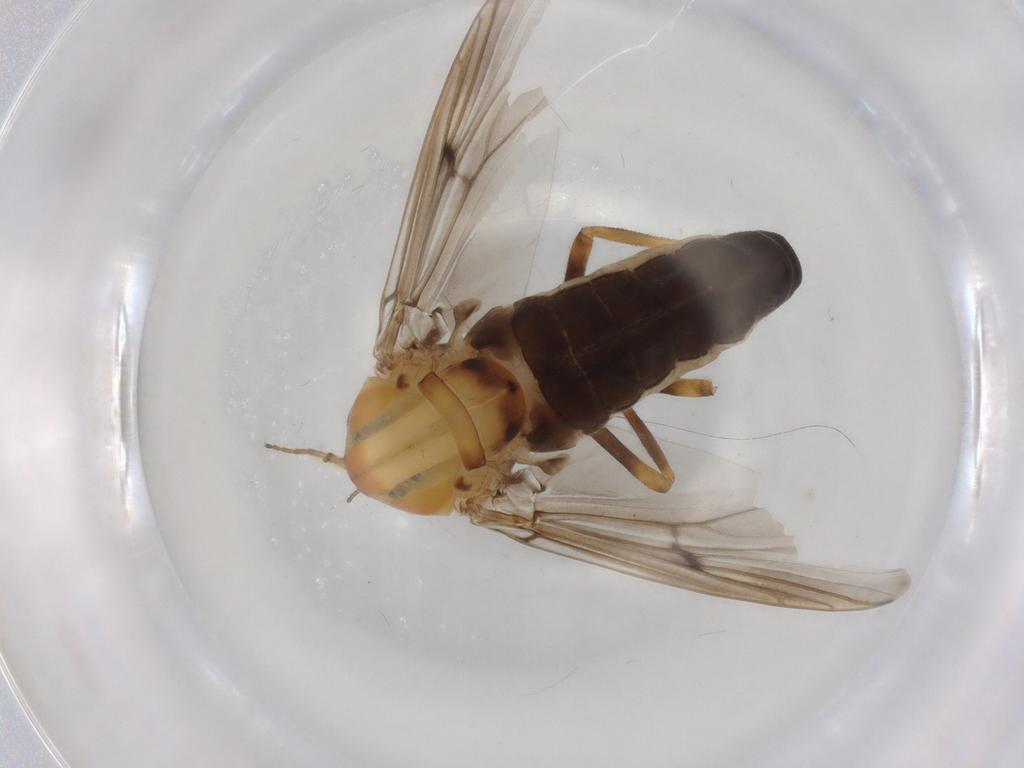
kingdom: Animalia
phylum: Arthropoda
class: Insecta
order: Diptera
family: Chironomidae
